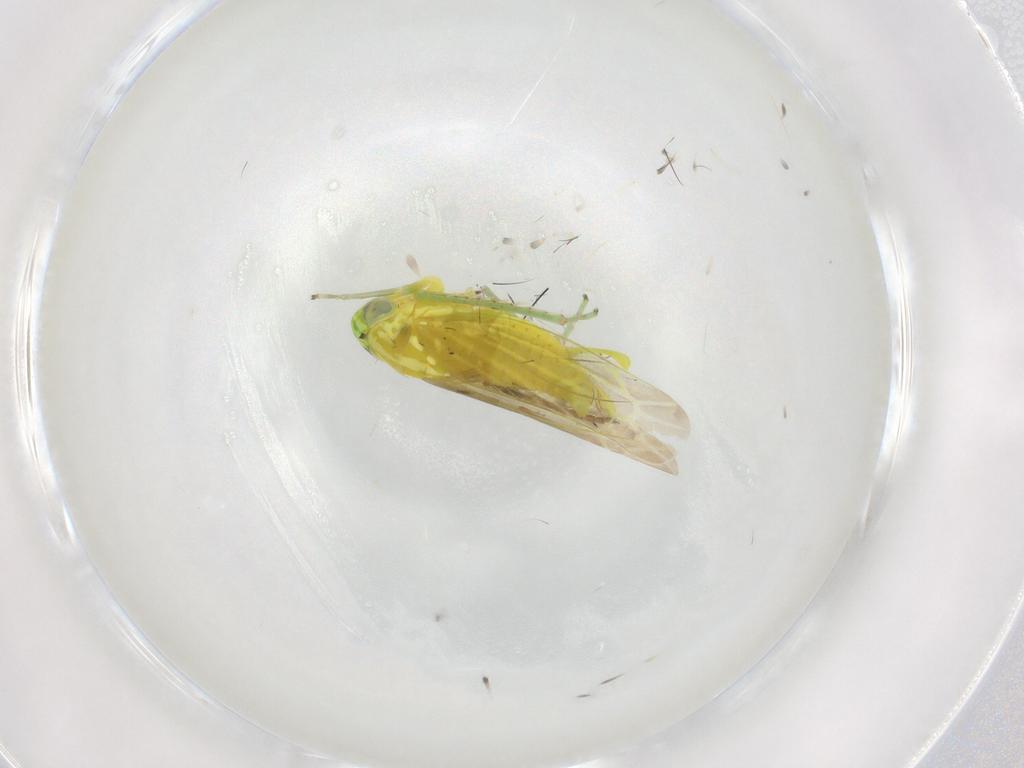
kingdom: Animalia
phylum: Arthropoda
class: Insecta
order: Hemiptera
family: Cicadellidae
